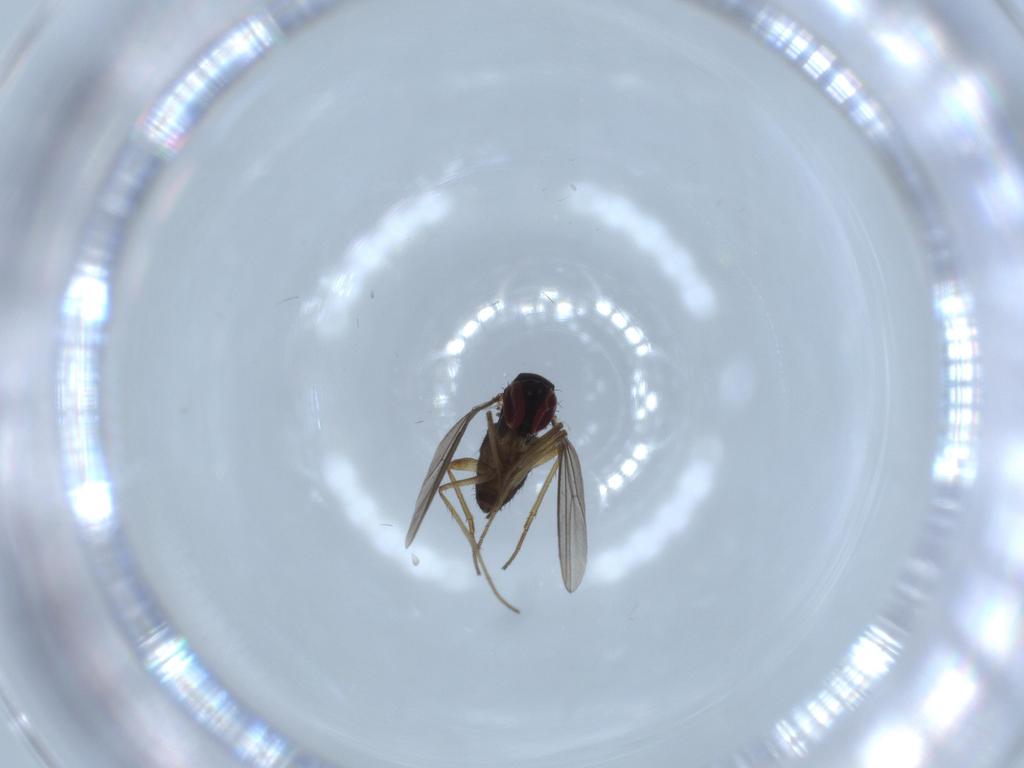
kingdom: Animalia
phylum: Arthropoda
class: Insecta
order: Diptera
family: Dolichopodidae
